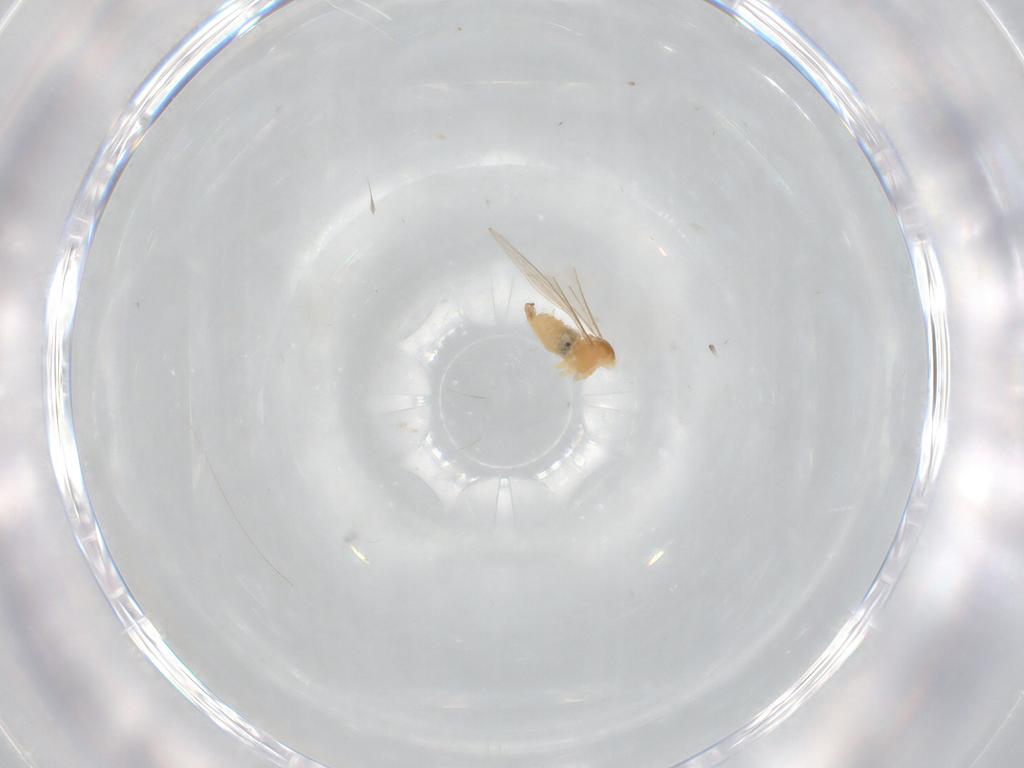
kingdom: Animalia
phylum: Arthropoda
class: Insecta
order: Diptera
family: Cecidomyiidae
